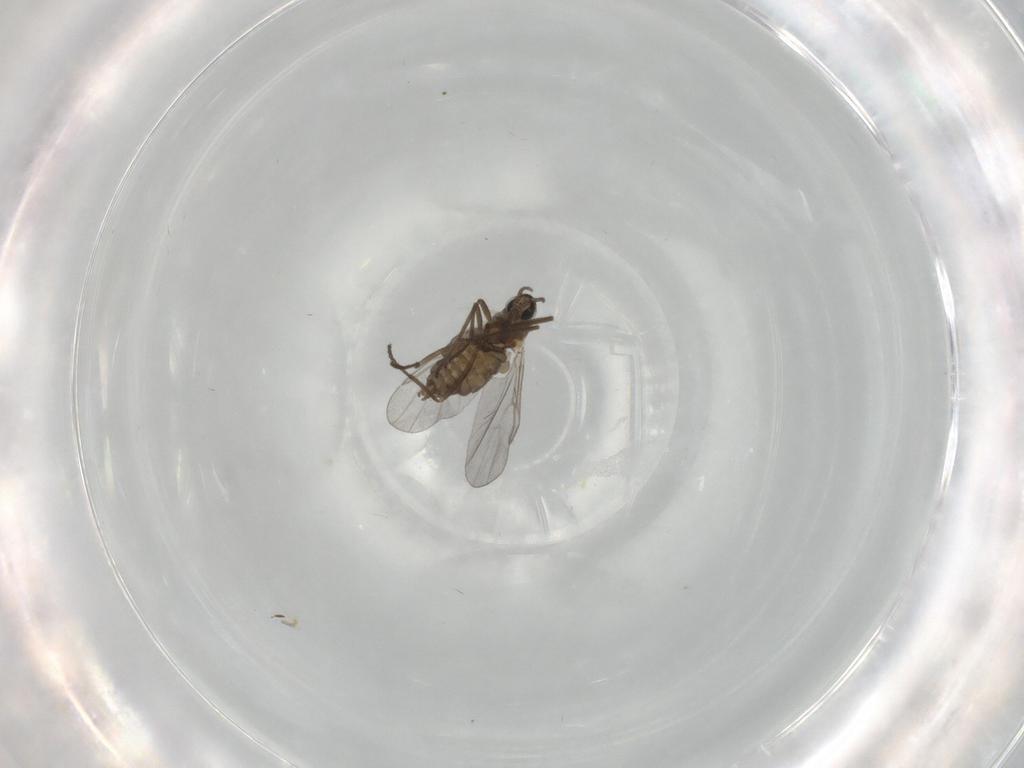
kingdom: Animalia
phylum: Arthropoda
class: Insecta
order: Diptera
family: Cecidomyiidae
